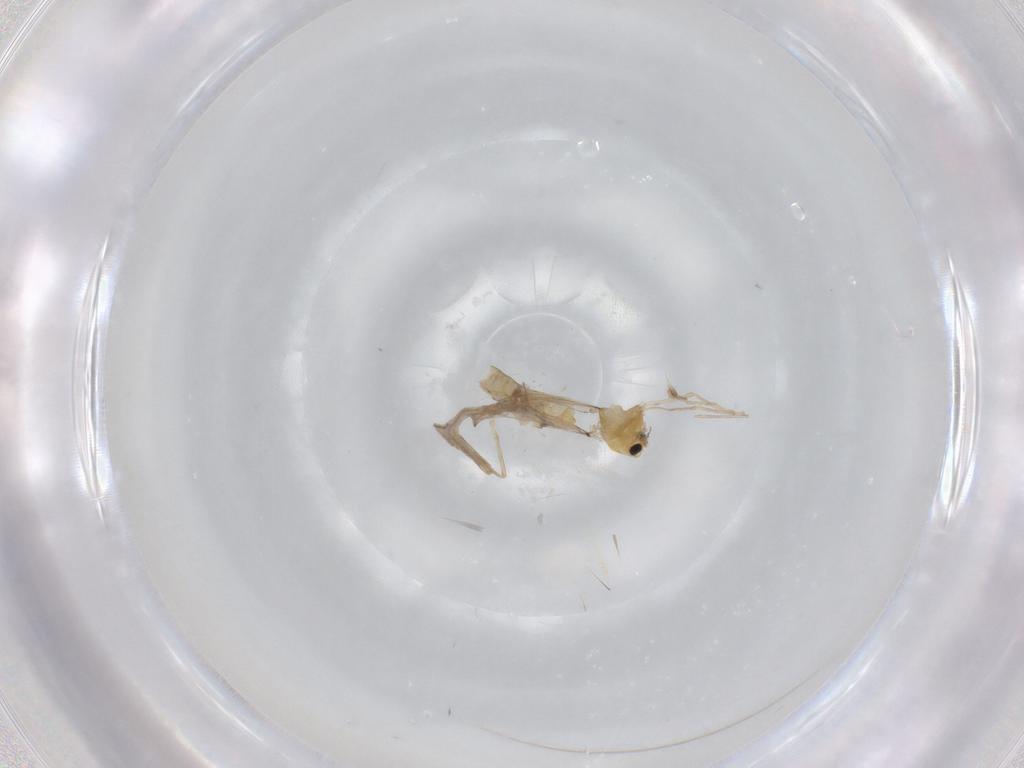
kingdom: Animalia
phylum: Arthropoda
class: Insecta
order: Diptera
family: Chironomidae
